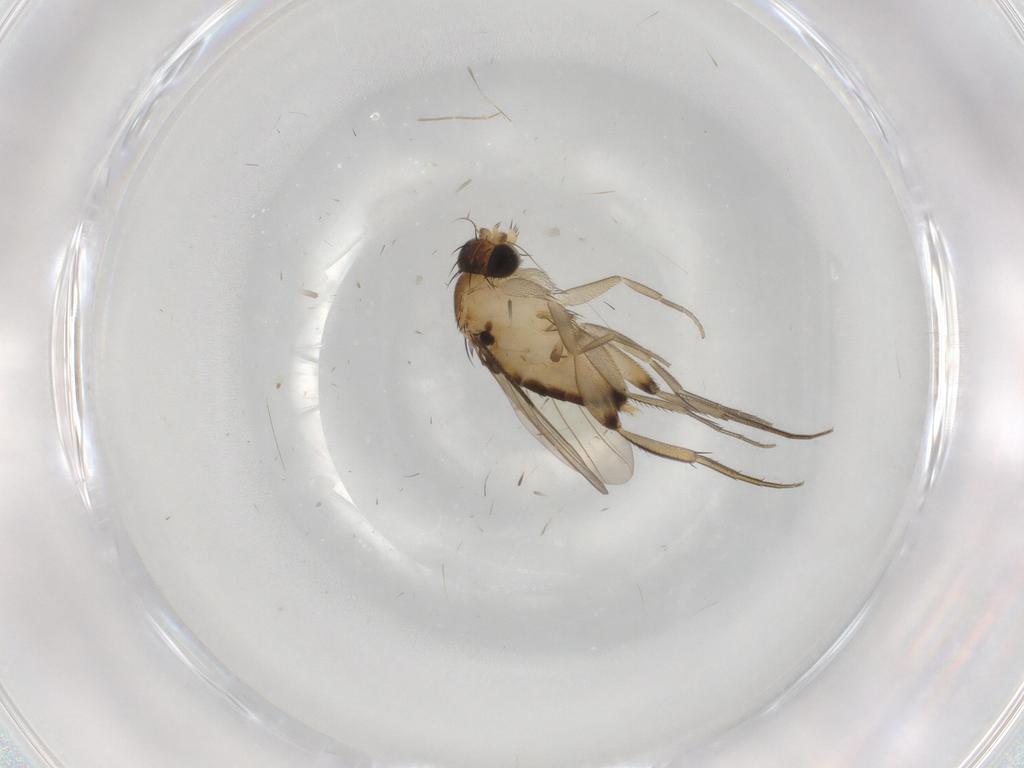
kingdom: Animalia
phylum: Arthropoda
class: Insecta
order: Diptera
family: Phoridae
